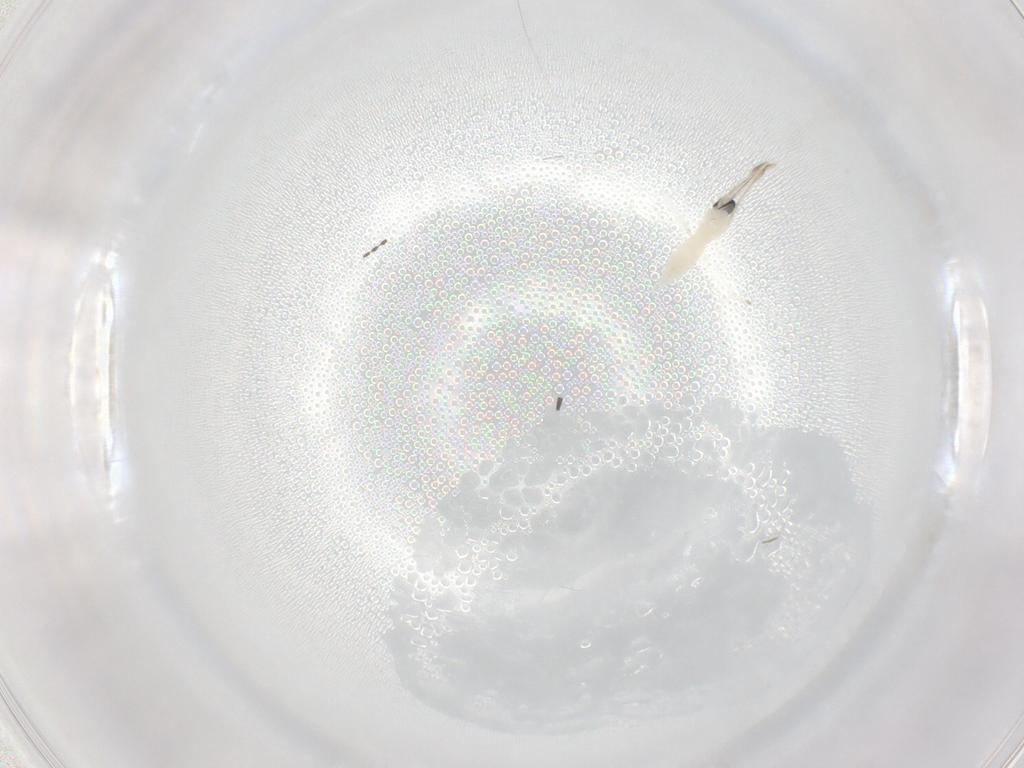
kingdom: Animalia
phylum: Arthropoda
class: Insecta
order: Diptera
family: Cecidomyiidae
